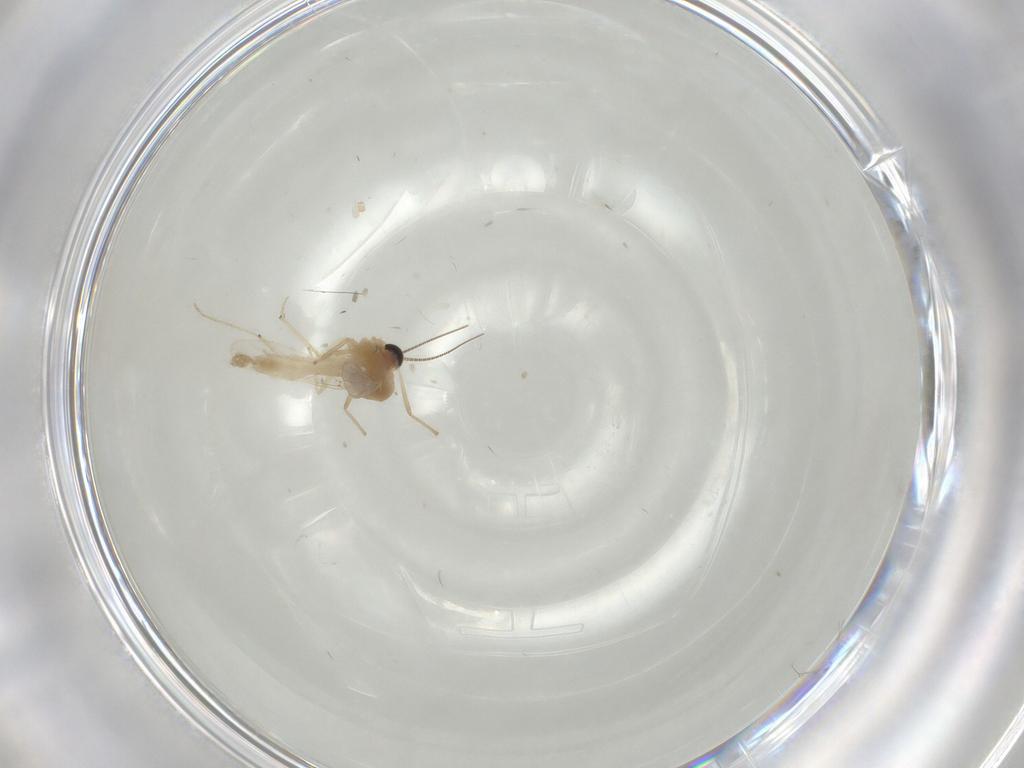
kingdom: Animalia
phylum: Arthropoda
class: Insecta
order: Diptera
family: Chironomidae
